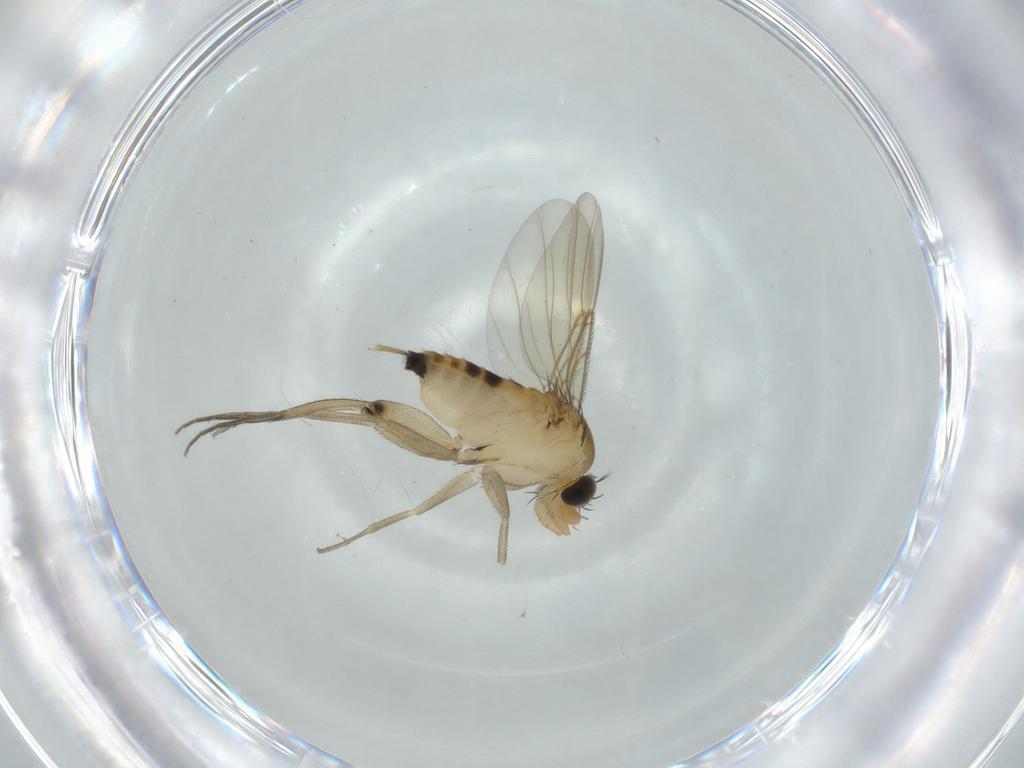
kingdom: Animalia
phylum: Arthropoda
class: Insecta
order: Diptera
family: Phoridae
